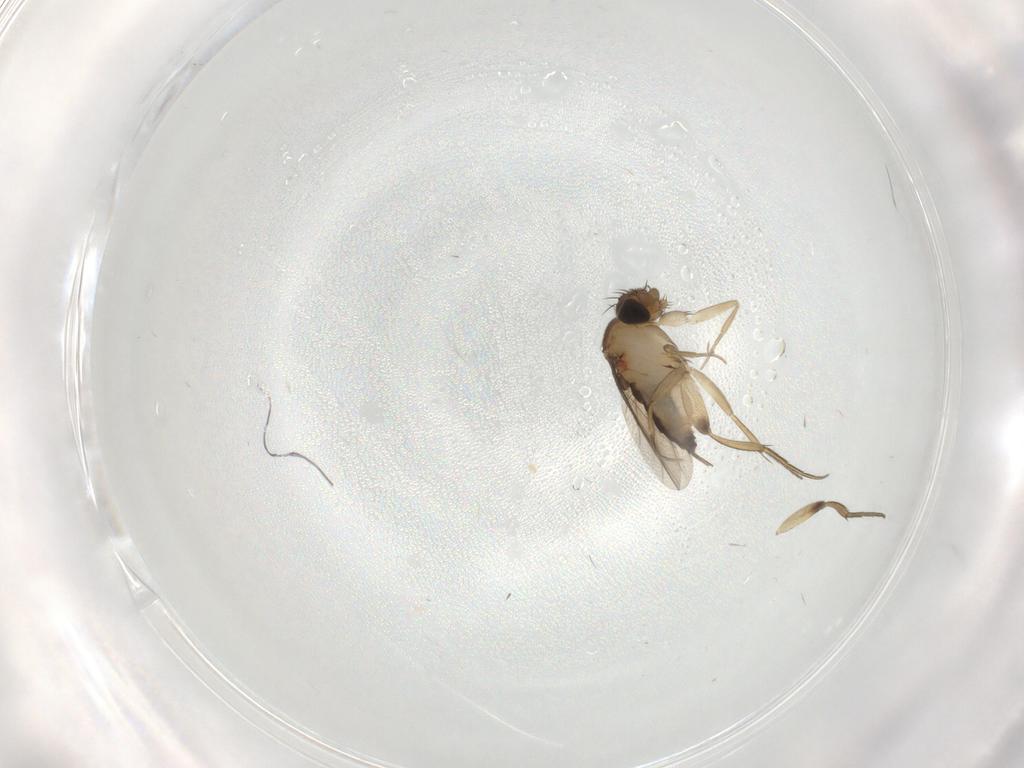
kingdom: Animalia
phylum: Arthropoda
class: Insecta
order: Diptera
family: Phoridae
